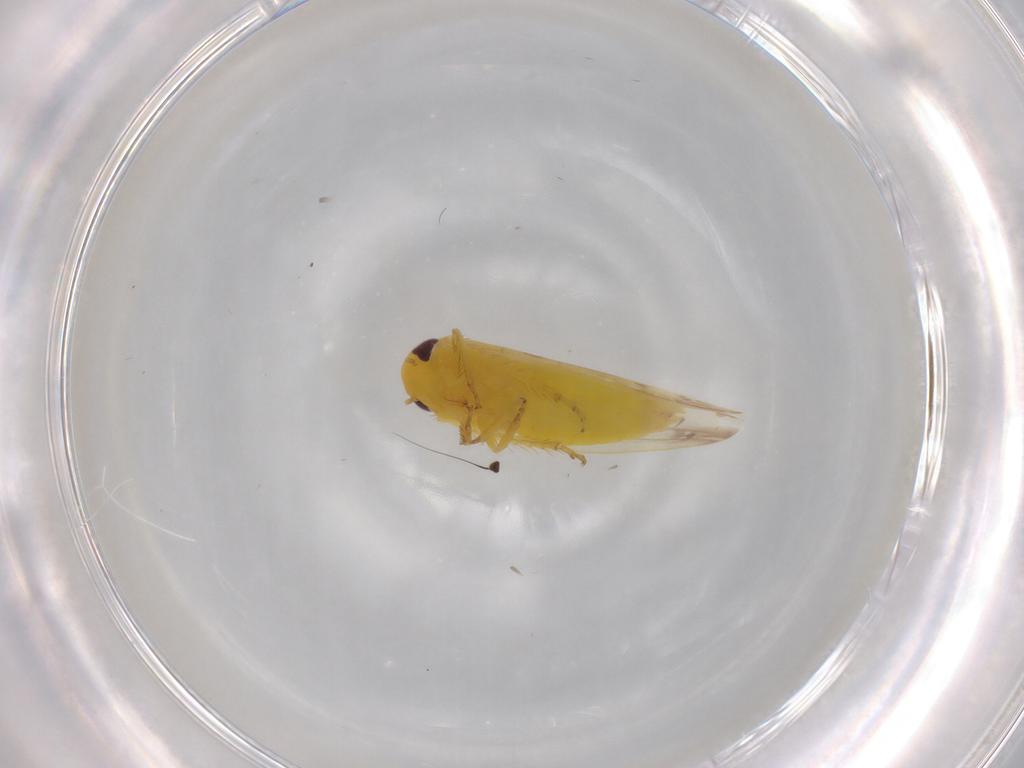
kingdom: Animalia
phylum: Arthropoda
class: Insecta
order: Hemiptera
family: Cicadellidae
